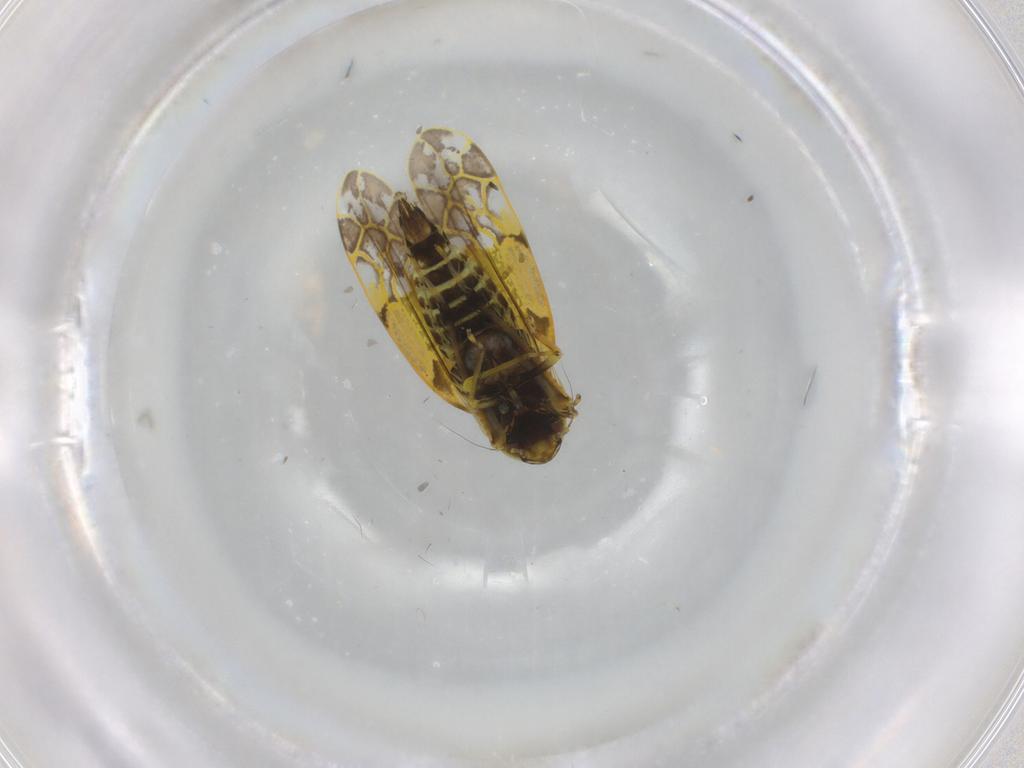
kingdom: Animalia
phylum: Arthropoda
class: Insecta
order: Hemiptera
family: Cicadellidae
